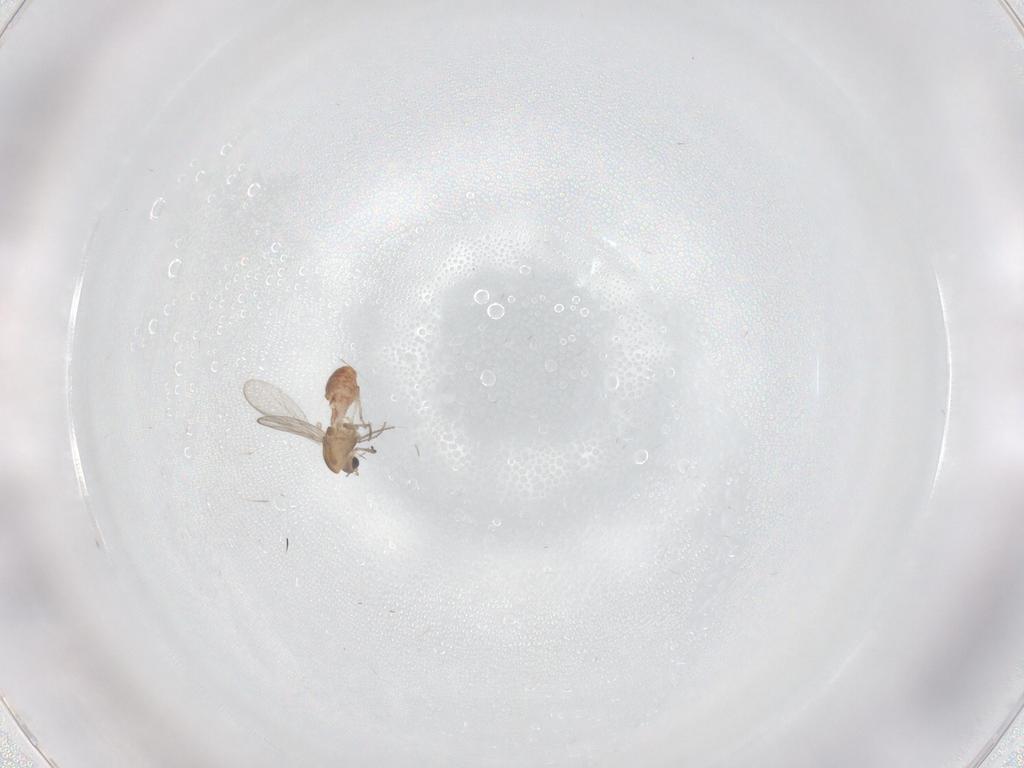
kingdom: Animalia
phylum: Arthropoda
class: Insecta
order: Diptera
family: Chironomidae
